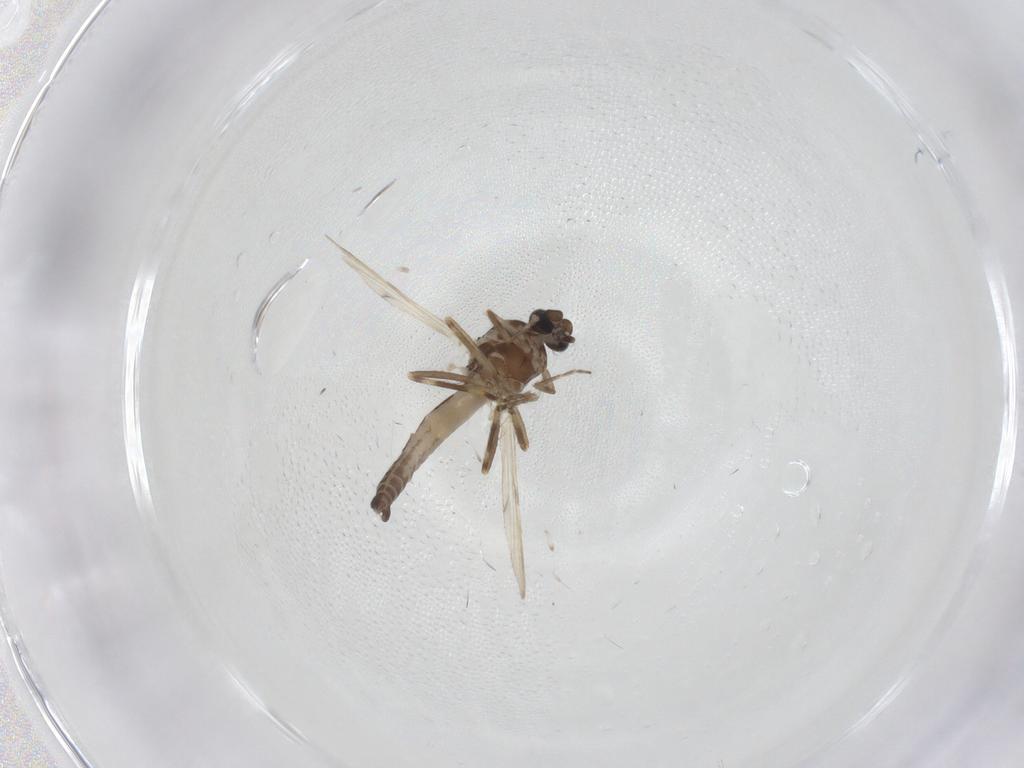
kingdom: Animalia
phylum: Arthropoda
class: Insecta
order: Diptera
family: Ceratopogonidae
